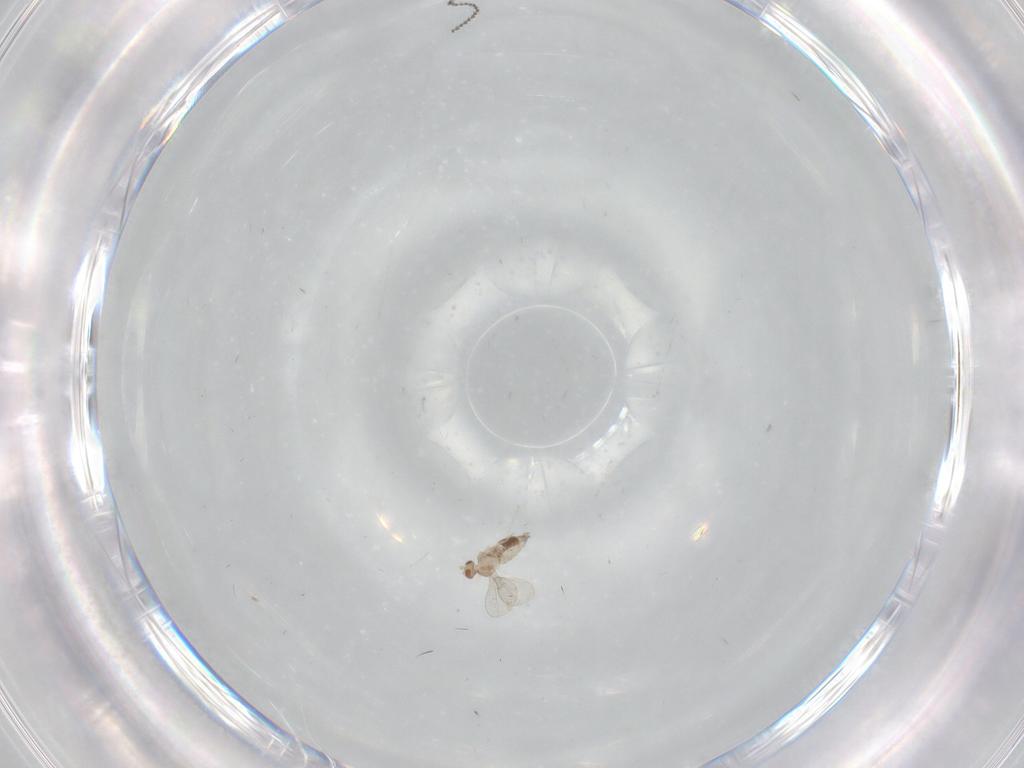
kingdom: Animalia
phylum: Arthropoda
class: Insecta
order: Diptera
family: Cecidomyiidae
